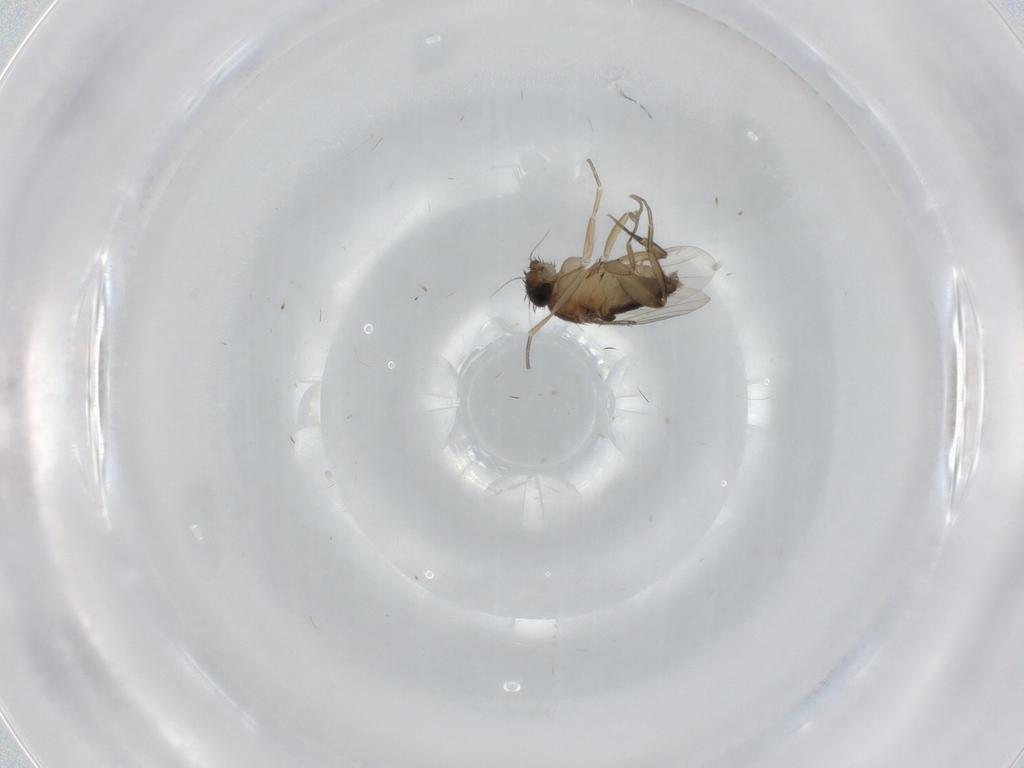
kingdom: Animalia
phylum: Arthropoda
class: Insecta
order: Diptera
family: Phoridae
